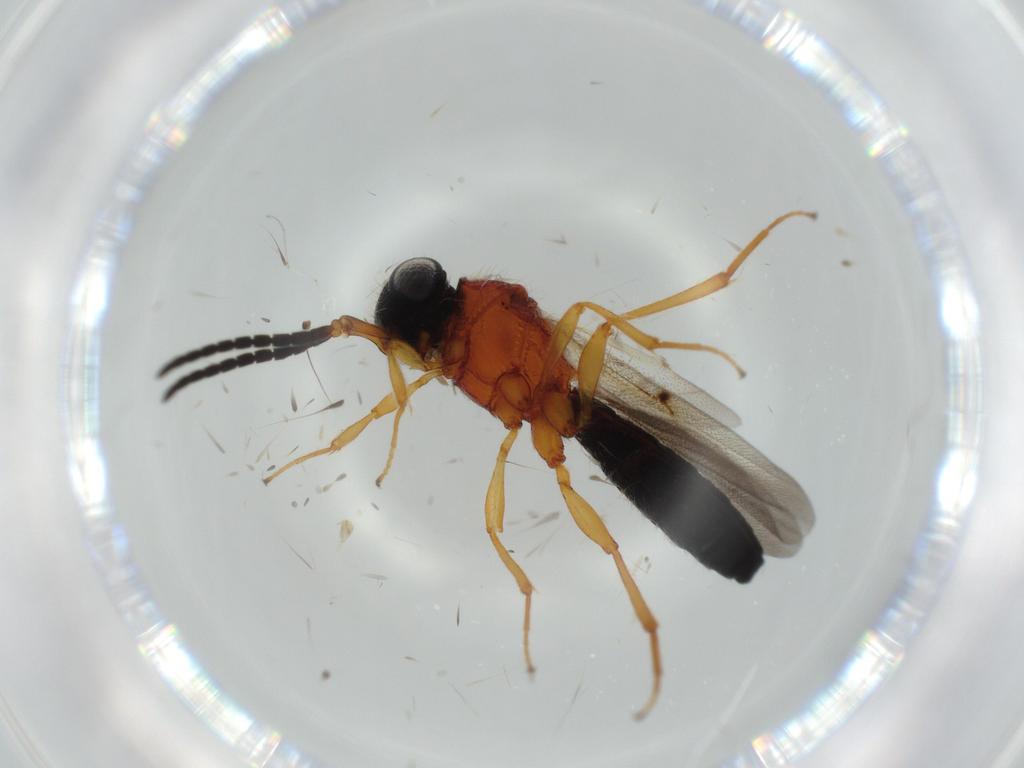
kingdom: Animalia
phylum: Arthropoda
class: Insecta
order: Hymenoptera
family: Scelionidae
